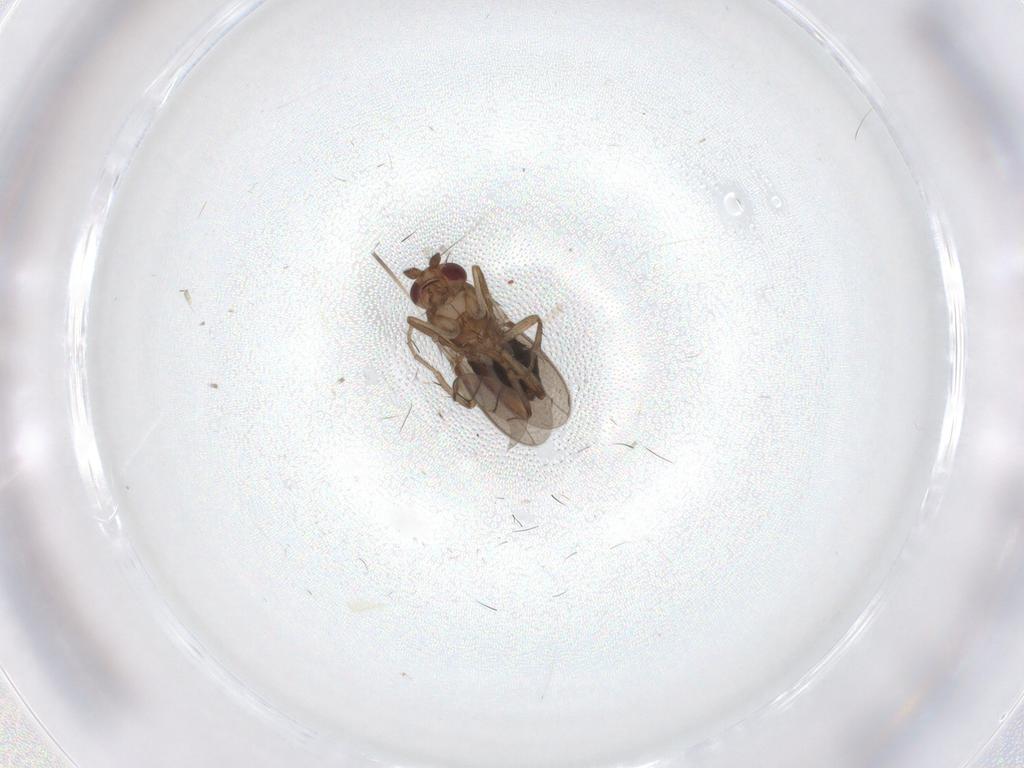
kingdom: Animalia
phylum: Arthropoda
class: Insecta
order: Diptera
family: Sphaeroceridae
